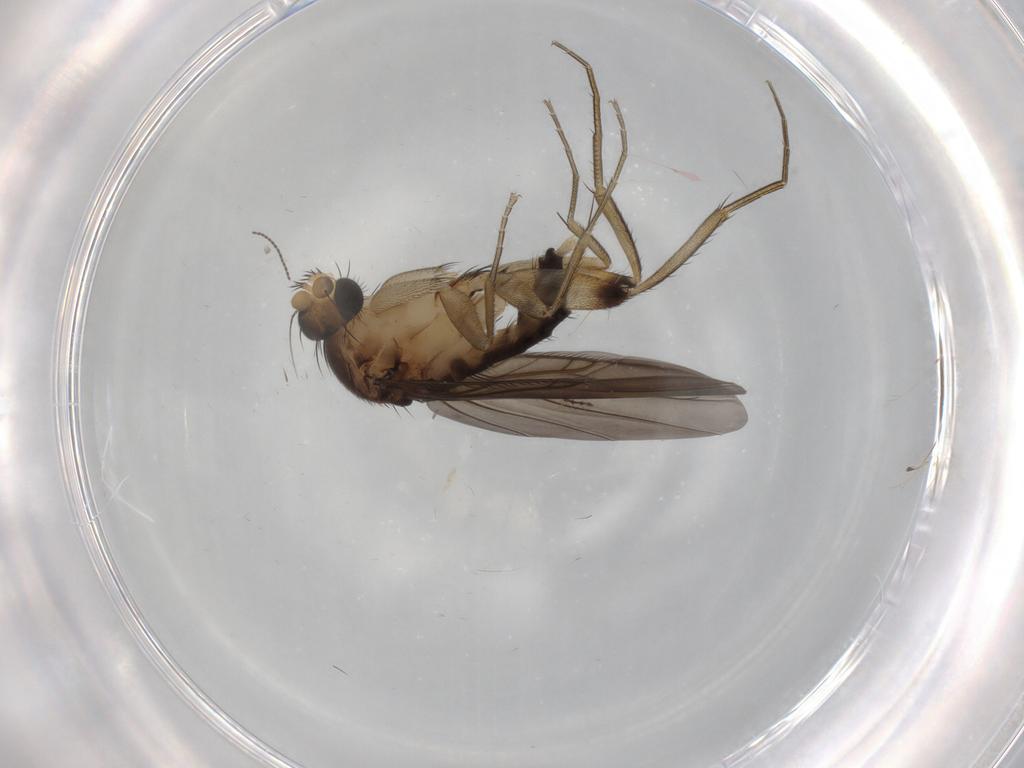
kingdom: Animalia
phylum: Arthropoda
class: Insecta
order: Diptera
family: Phoridae
